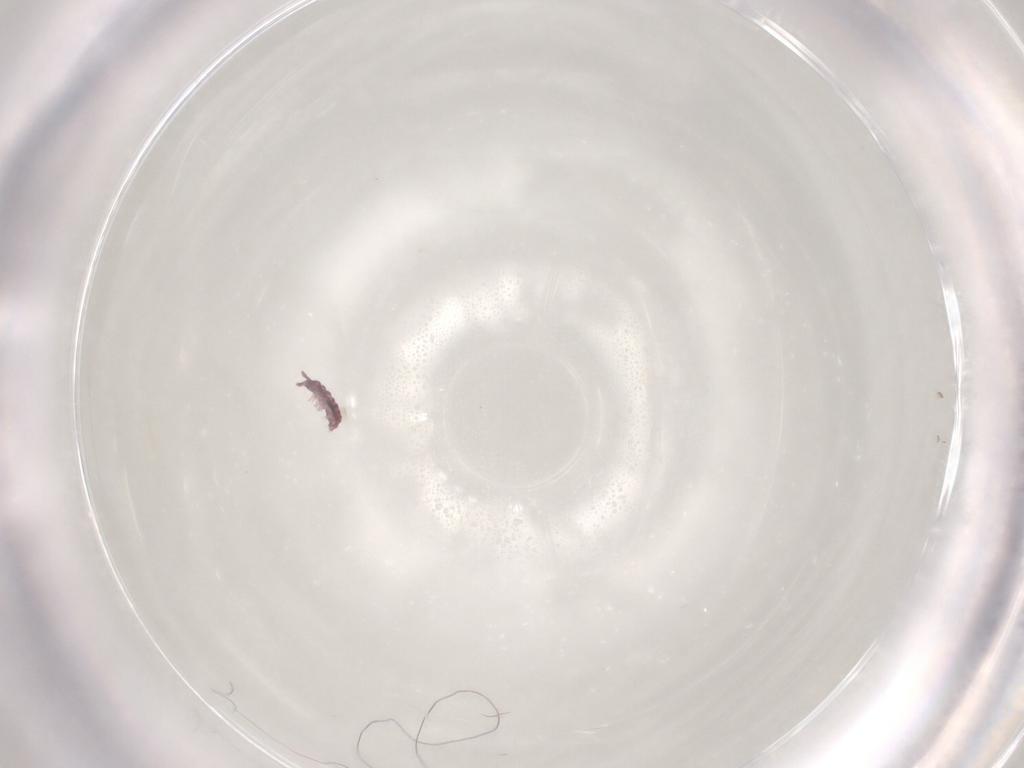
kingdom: Animalia
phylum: Arthropoda
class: Collembola
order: Poduromorpha
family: Hypogastruridae
